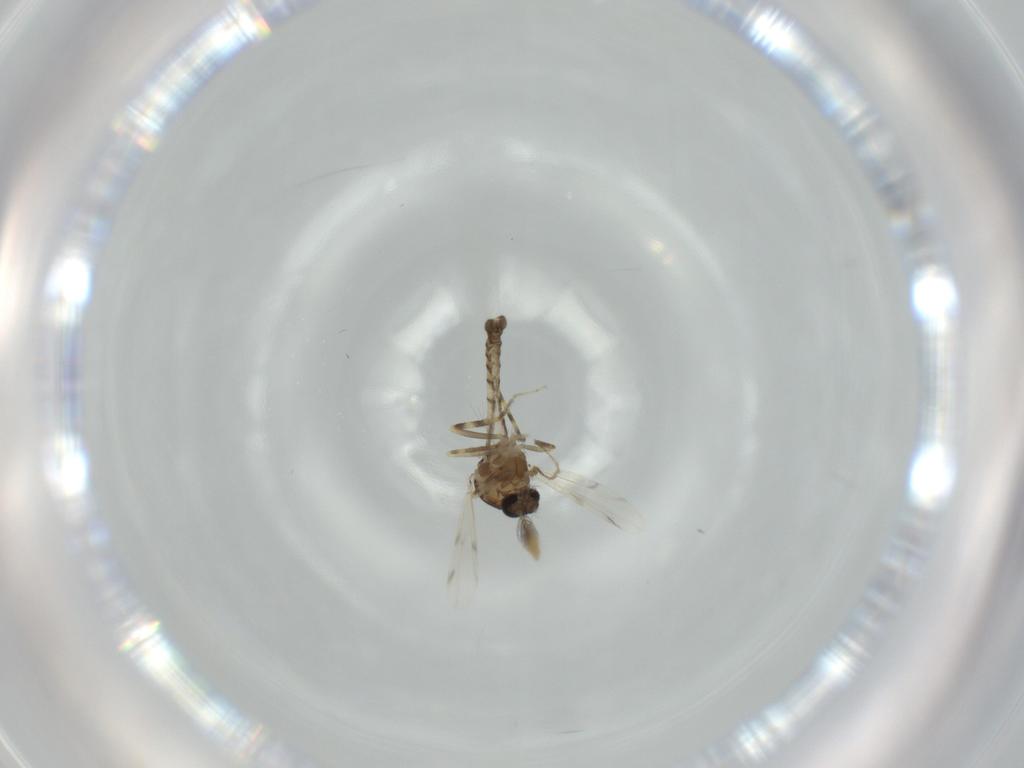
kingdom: Animalia
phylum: Arthropoda
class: Insecta
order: Diptera
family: Ceratopogonidae
